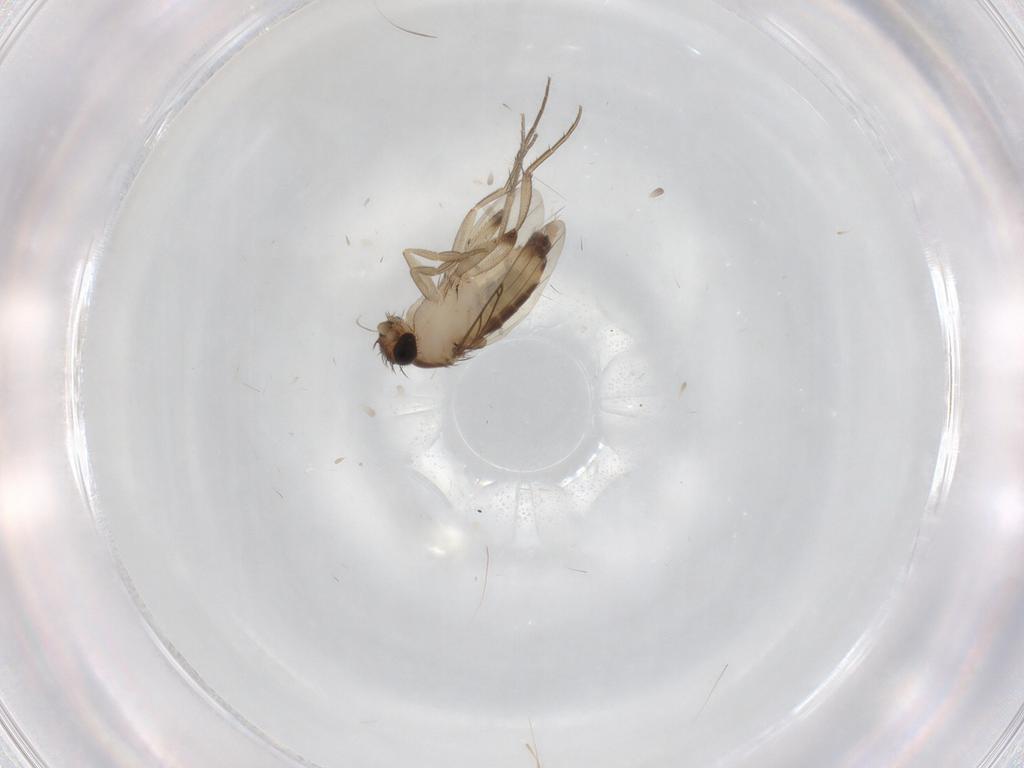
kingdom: Animalia
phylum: Arthropoda
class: Insecta
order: Diptera
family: Phoridae
